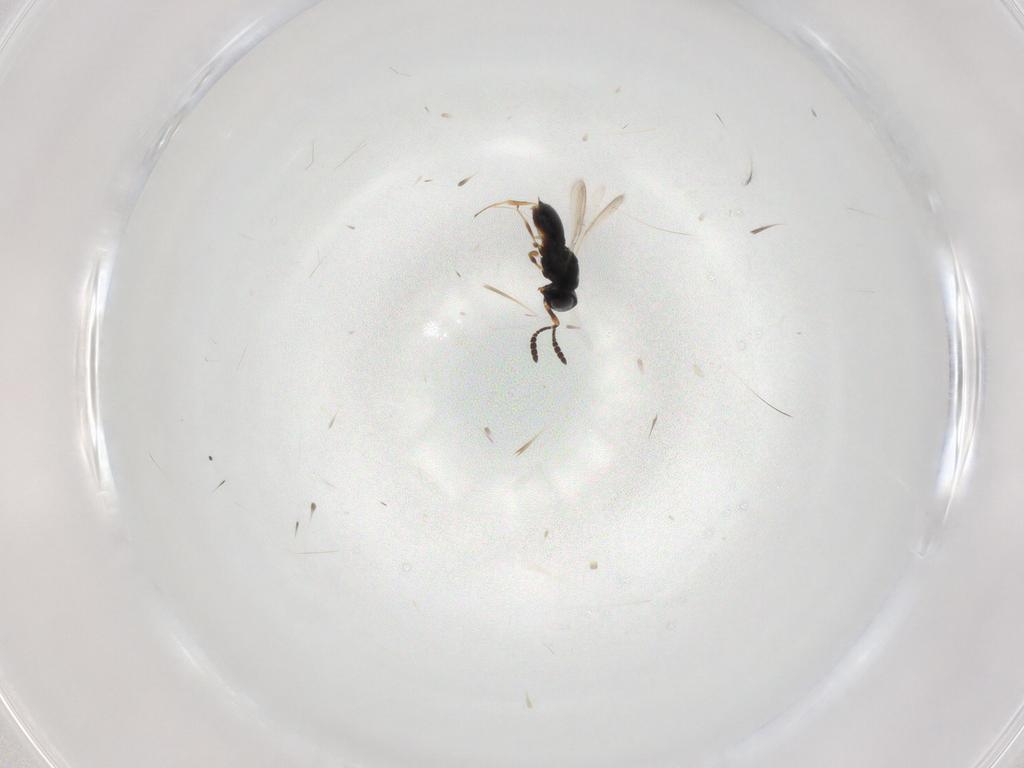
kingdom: Animalia
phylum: Arthropoda
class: Insecta
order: Hymenoptera
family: Scelionidae
